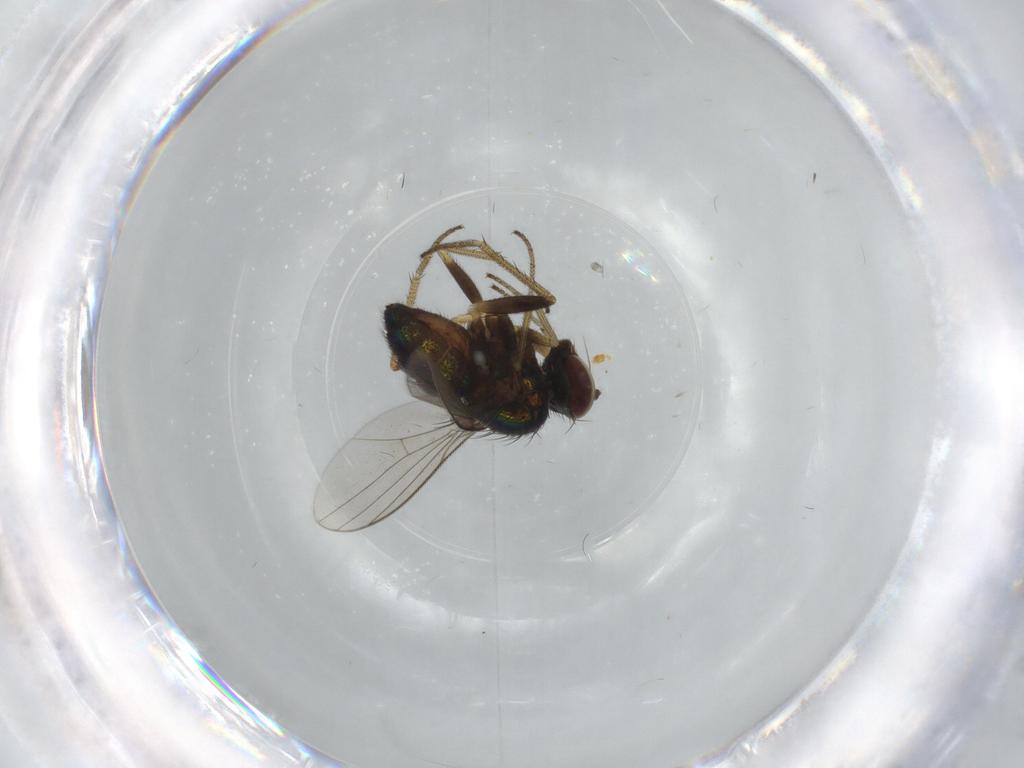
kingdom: Animalia
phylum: Arthropoda
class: Insecta
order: Diptera
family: Dolichopodidae
